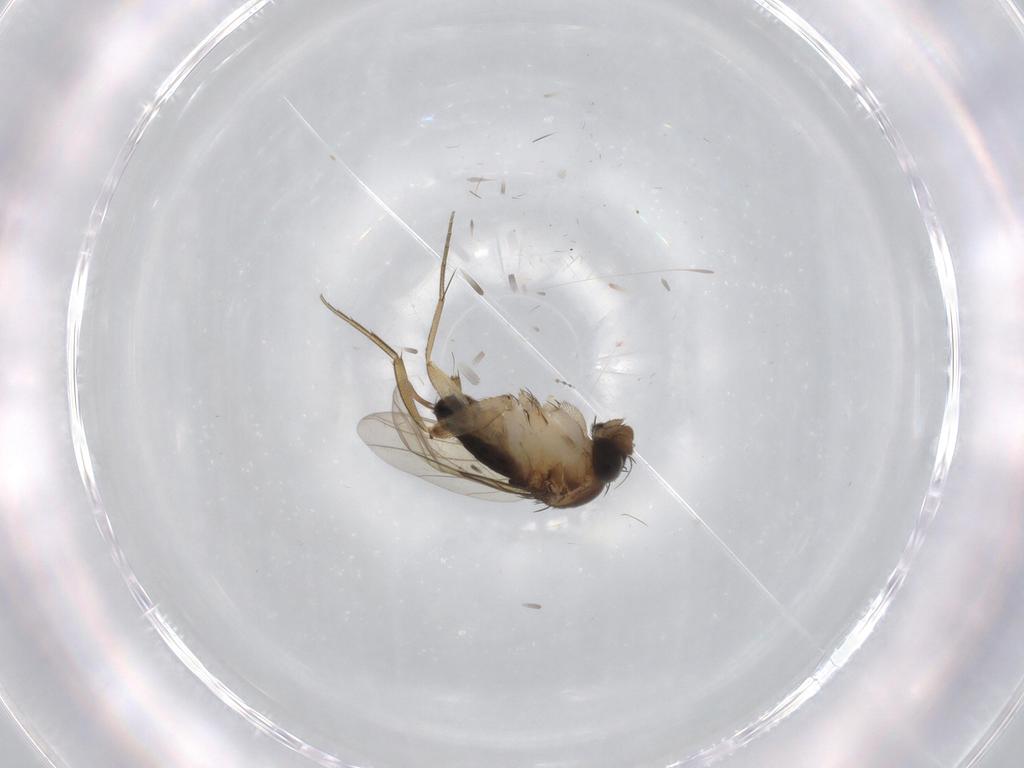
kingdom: Animalia
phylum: Arthropoda
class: Insecta
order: Diptera
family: Phoridae
